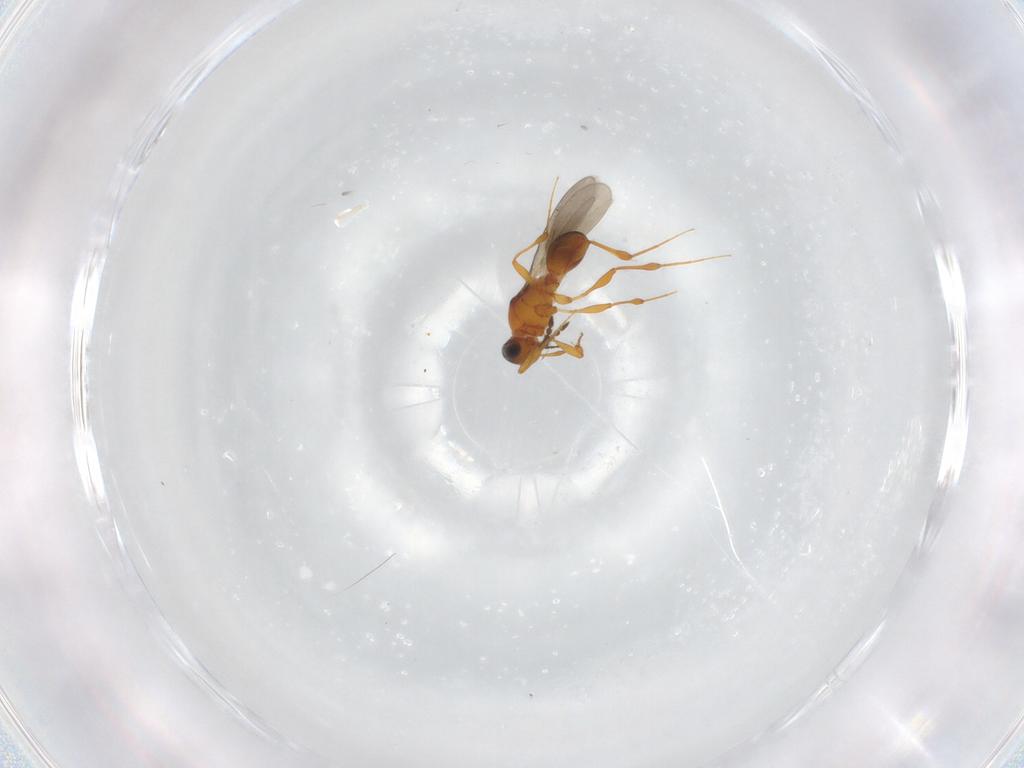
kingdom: Animalia
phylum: Arthropoda
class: Insecta
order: Hymenoptera
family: Platygastridae
